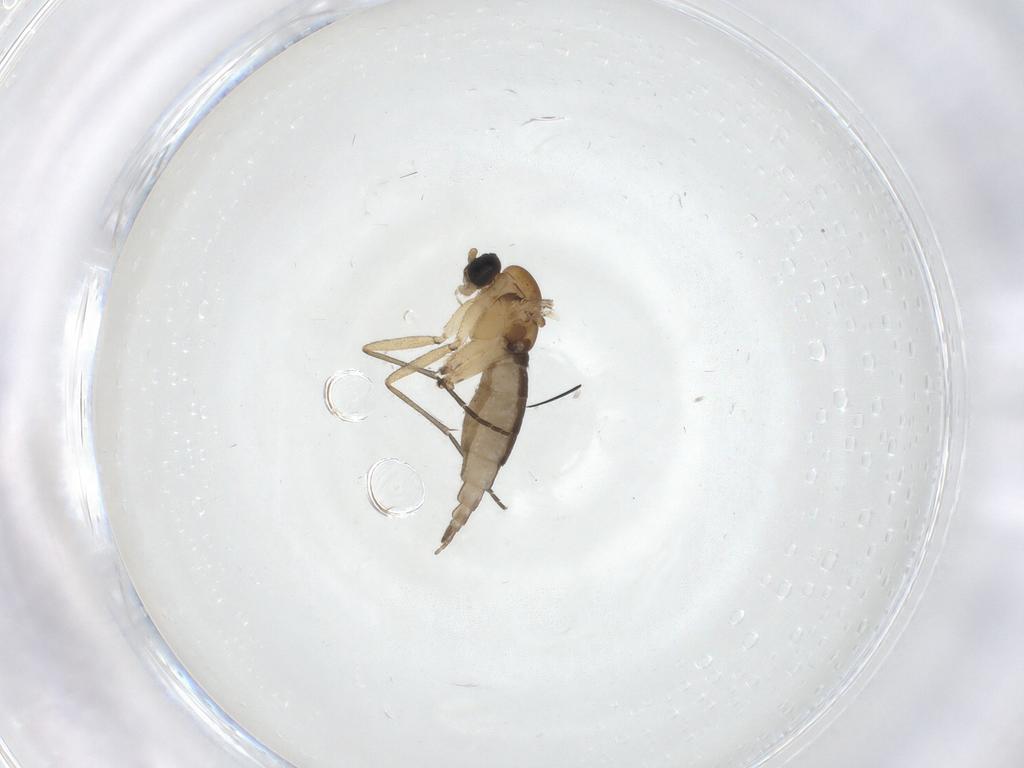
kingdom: Animalia
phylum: Arthropoda
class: Insecta
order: Diptera
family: Sciaridae
